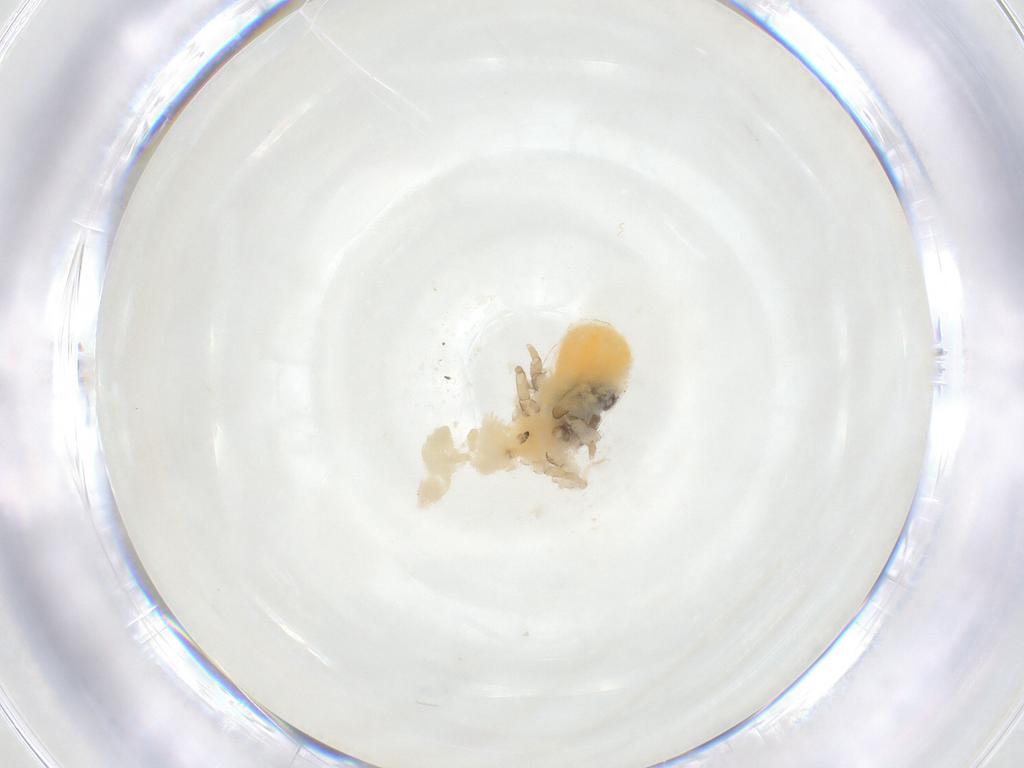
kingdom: Animalia
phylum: Arthropoda
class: Insecta
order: Hemiptera
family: Triozidae
